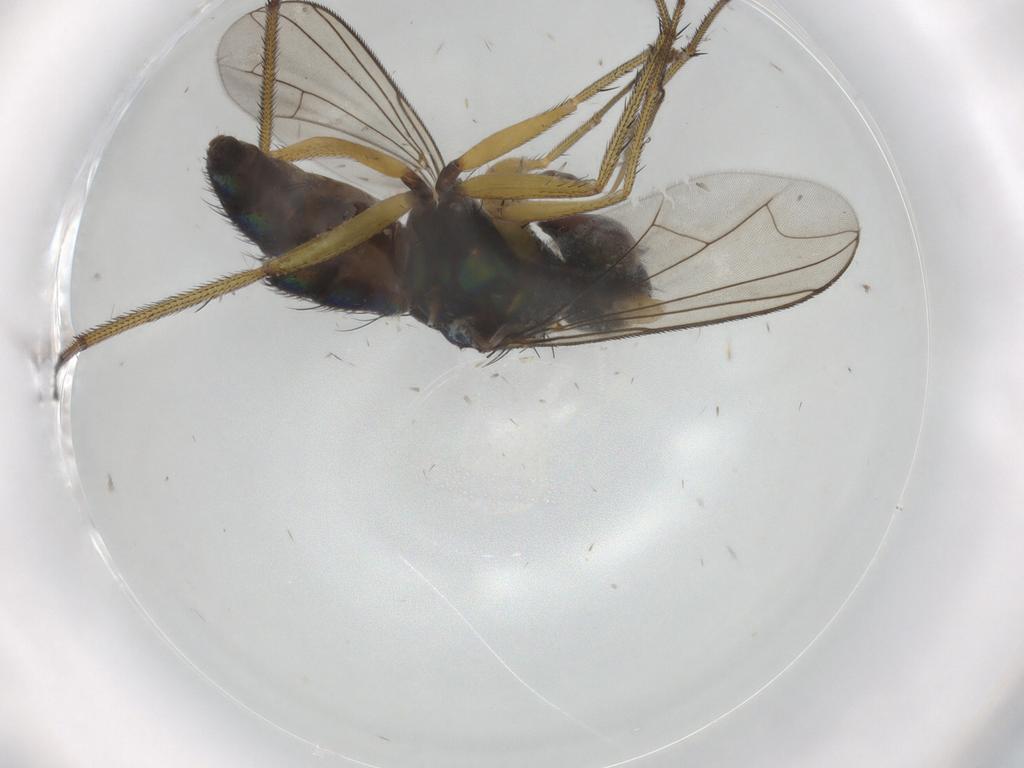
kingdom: Animalia
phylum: Arthropoda
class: Insecta
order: Diptera
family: Dolichopodidae
